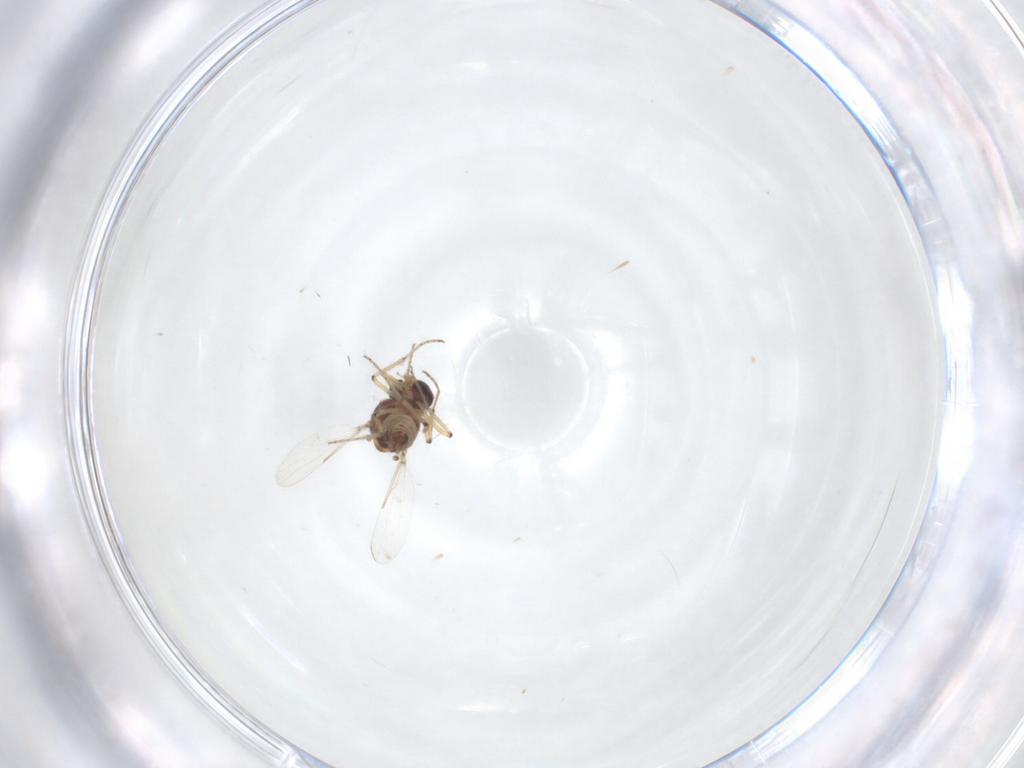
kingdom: Animalia
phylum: Arthropoda
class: Insecta
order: Diptera
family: Ceratopogonidae
